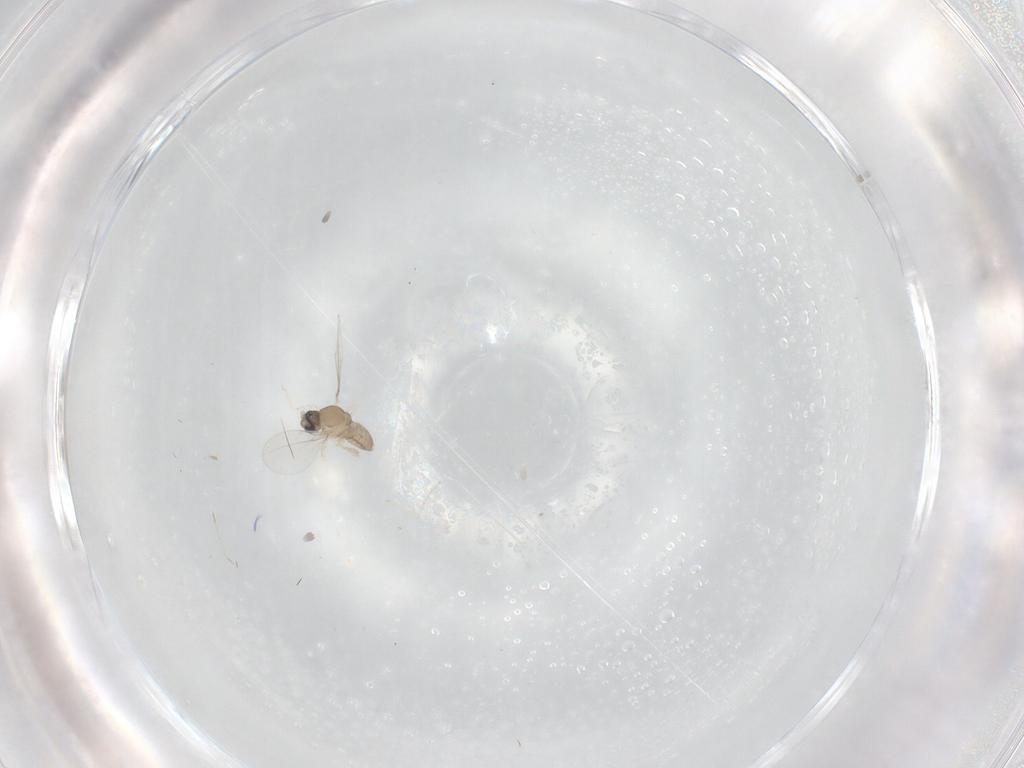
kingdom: Animalia
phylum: Arthropoda
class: Insecta
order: Diptera
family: Cecidomyiidae
